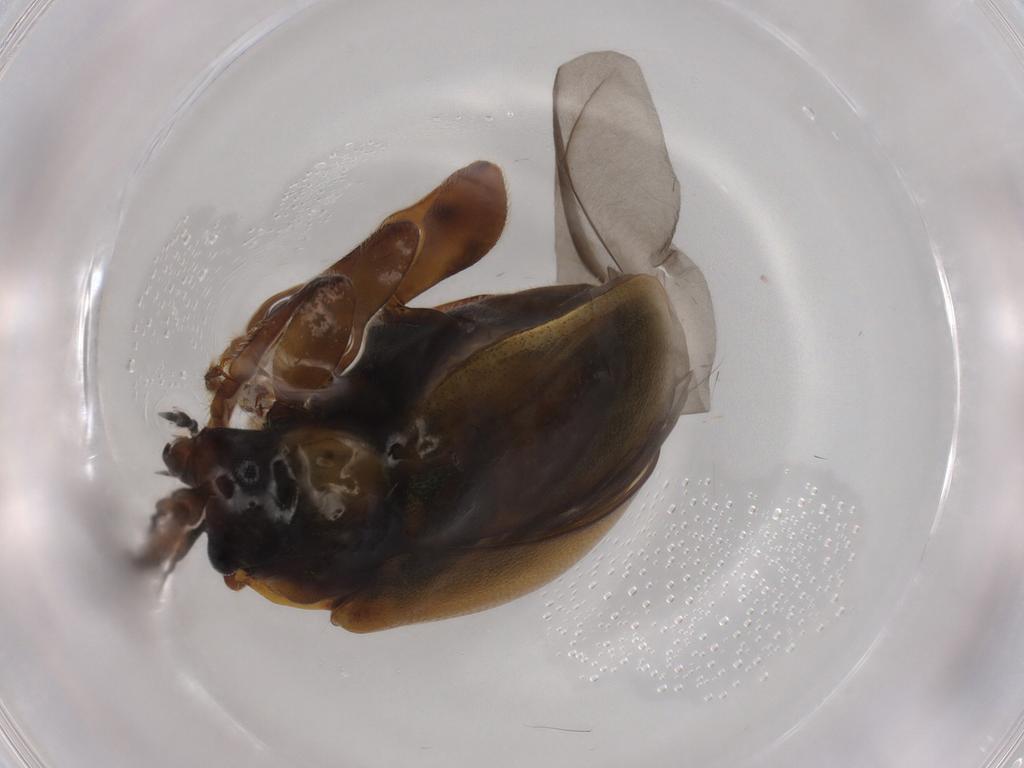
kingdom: Animalia
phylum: Arthropoda
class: Insecta
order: Coleoptera
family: Chrysomelidae
